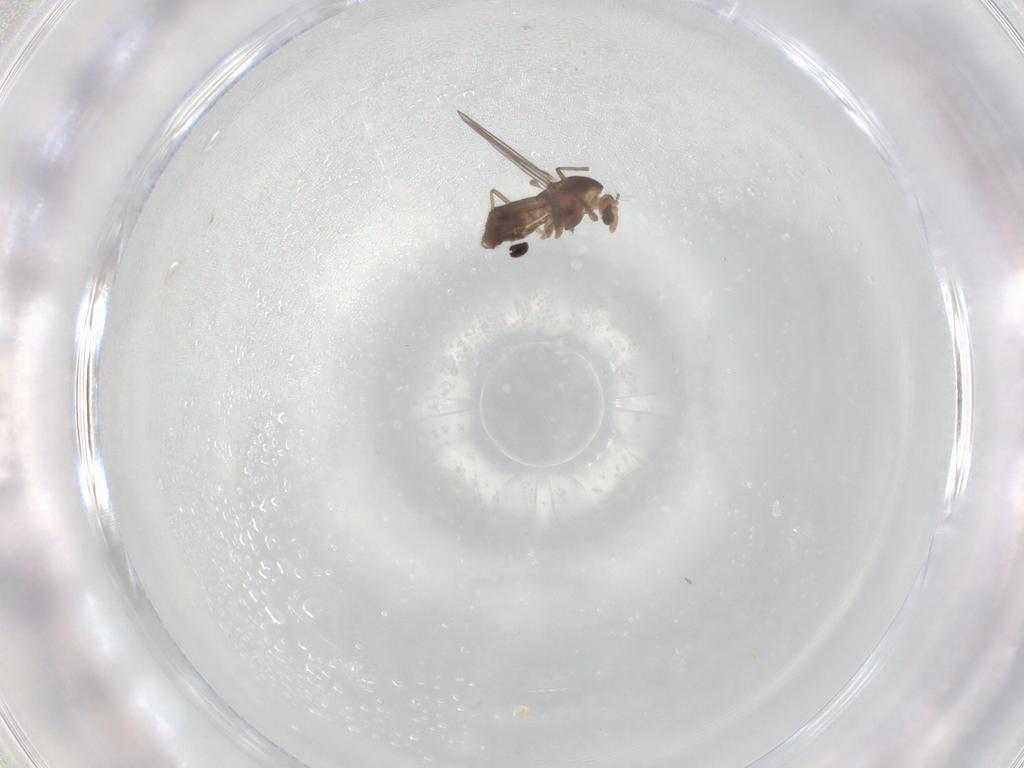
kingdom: Animalia
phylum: Arthropoda
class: Insecta
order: Diptera
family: Chironomidae
